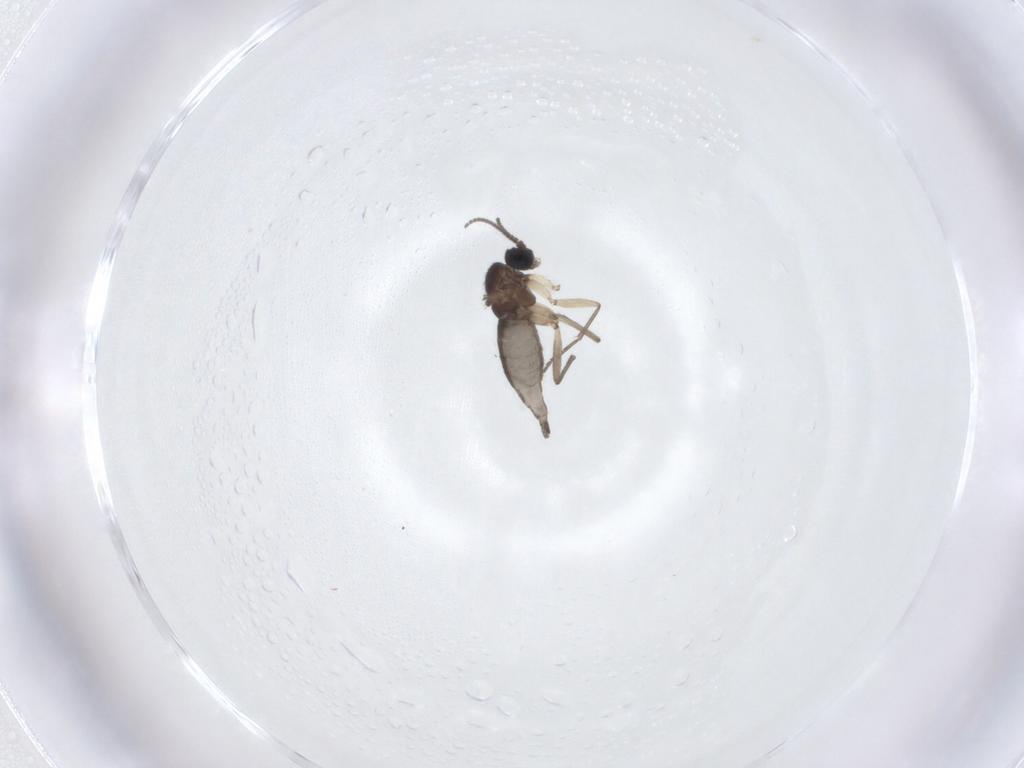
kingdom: Animalia
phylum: Arthropoda
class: Insecta
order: Diptera
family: Sciaridae
